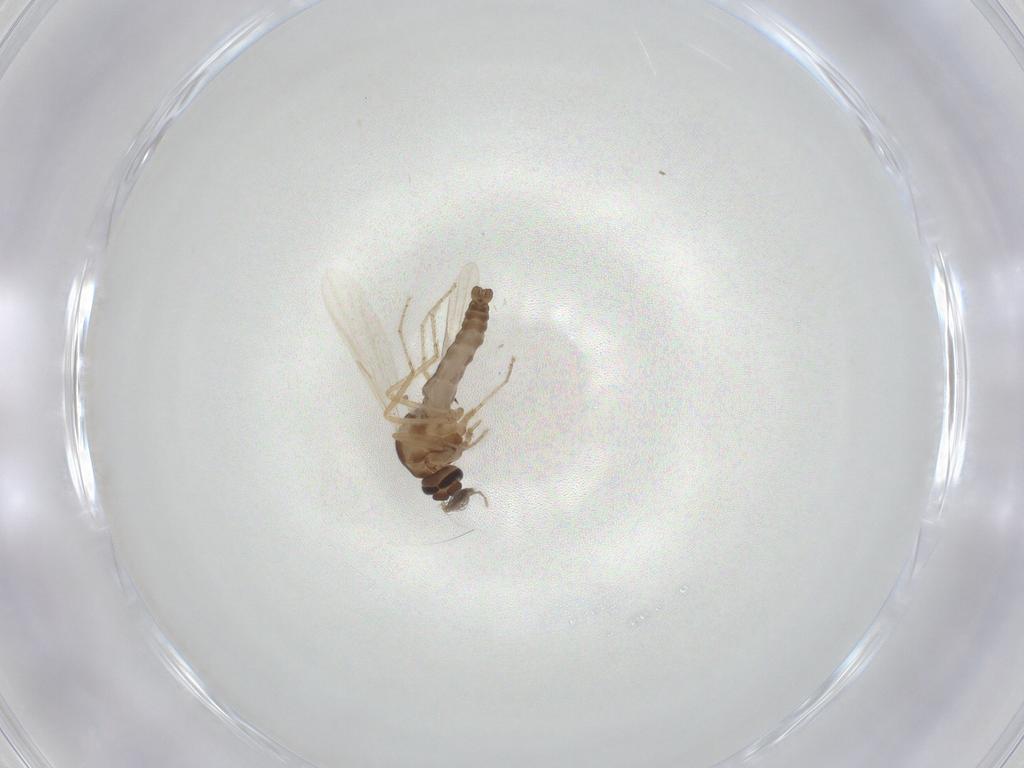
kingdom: Animalia
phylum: Arthropoda
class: Insecta
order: Diptera
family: Ceratopogonidae
